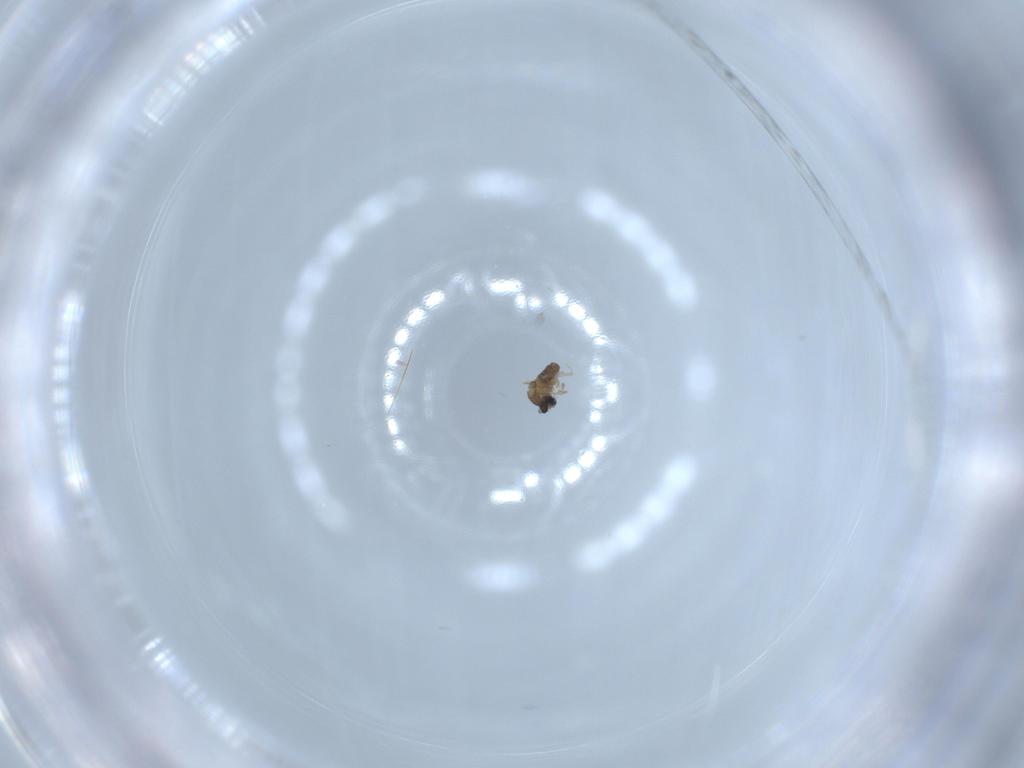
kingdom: Animalia
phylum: Arthropoda
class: Insecta
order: Diptera
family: Cecidomyiidae
